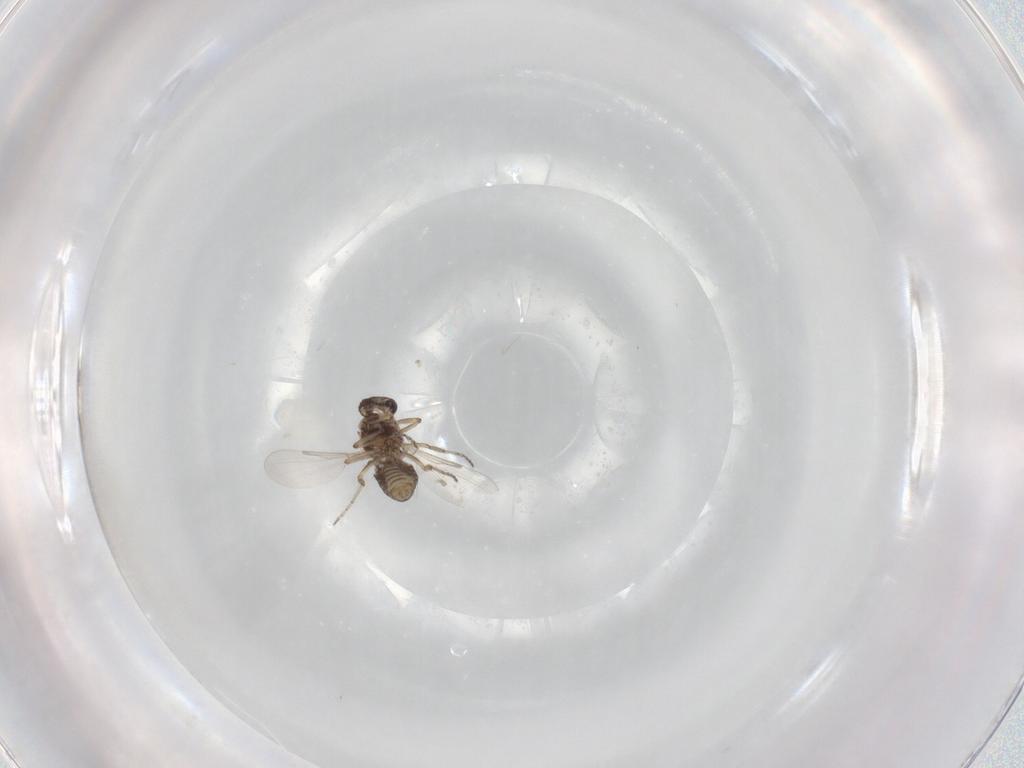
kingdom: Animalia
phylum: Arthropoda
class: Insecta
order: Diptera
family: Ceratopogonidae
